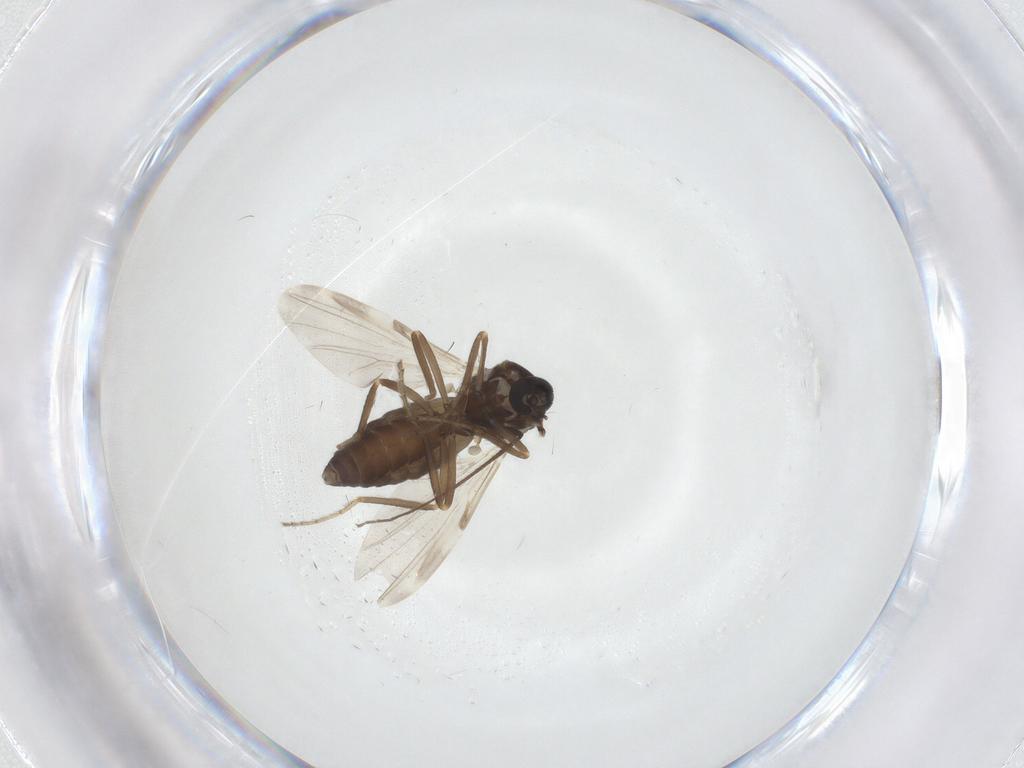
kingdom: Animalia
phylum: Arthropoda
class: Insecta
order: Diptera
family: Ceratopogonidae
